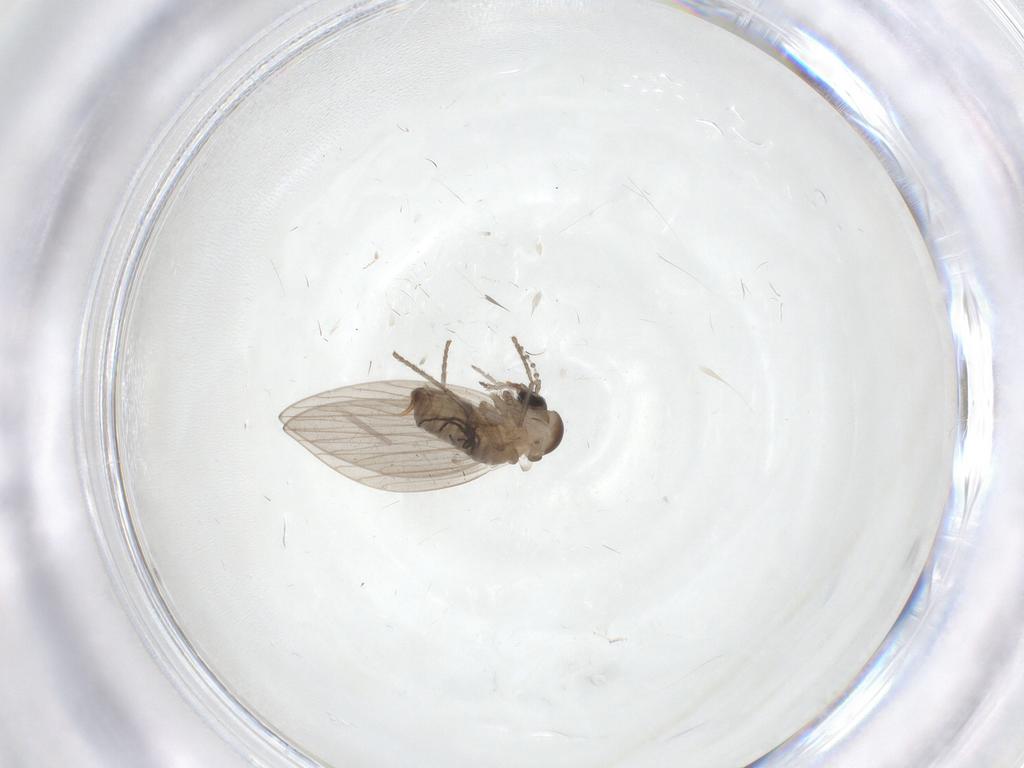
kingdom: Animalia
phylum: Arthropoda
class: Insecta
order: Diptera
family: Psychodidae
